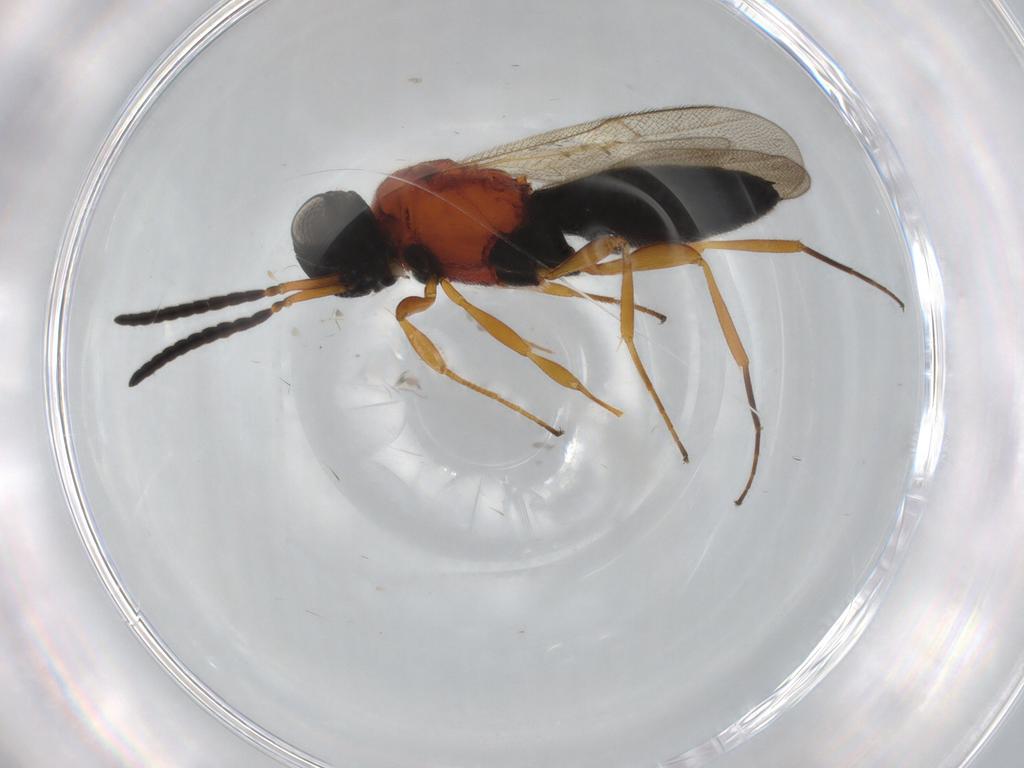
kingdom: Animalia
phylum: Arthropoda
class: Insecta
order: Hymenoptera
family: Scelionidae
